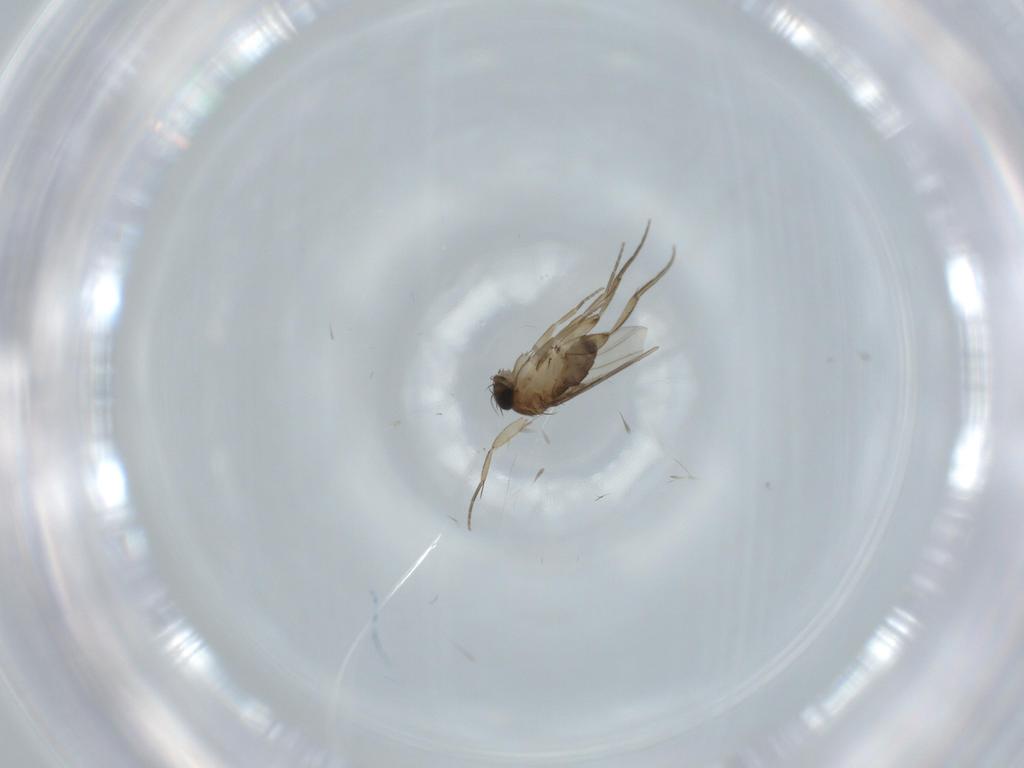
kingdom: Animalia
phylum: Arthropoda
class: Insecta
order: Diptera
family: Phoridae
